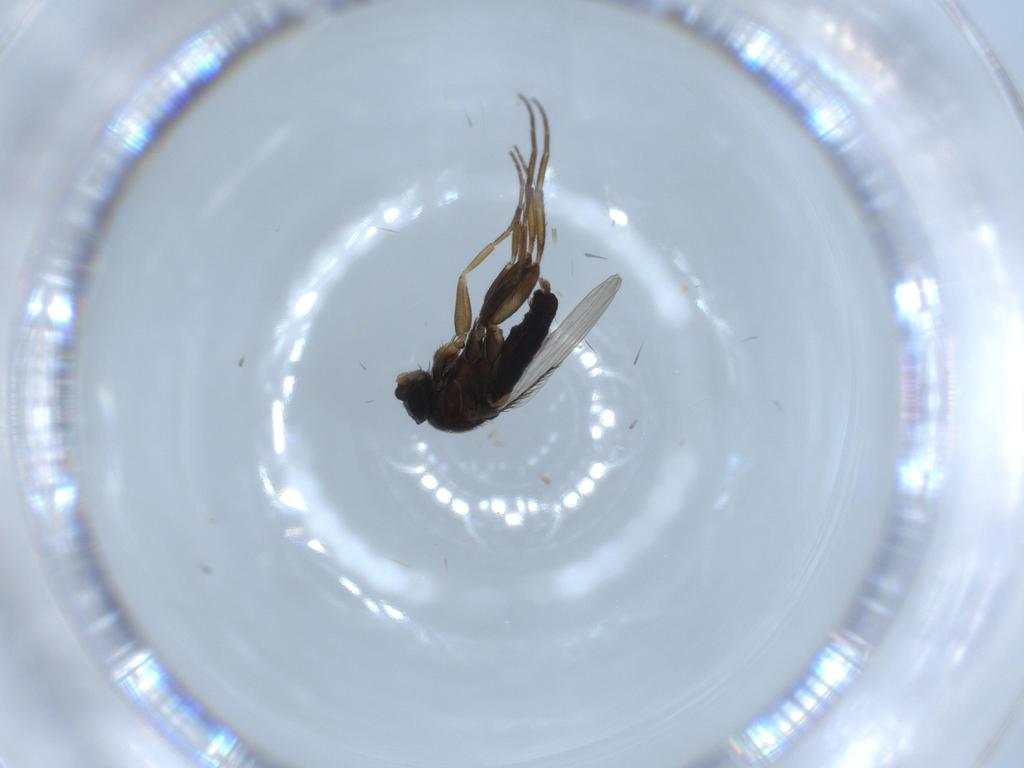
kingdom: Animalia
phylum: Arthropoda
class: Insecta
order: Diptera
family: Phoridae
